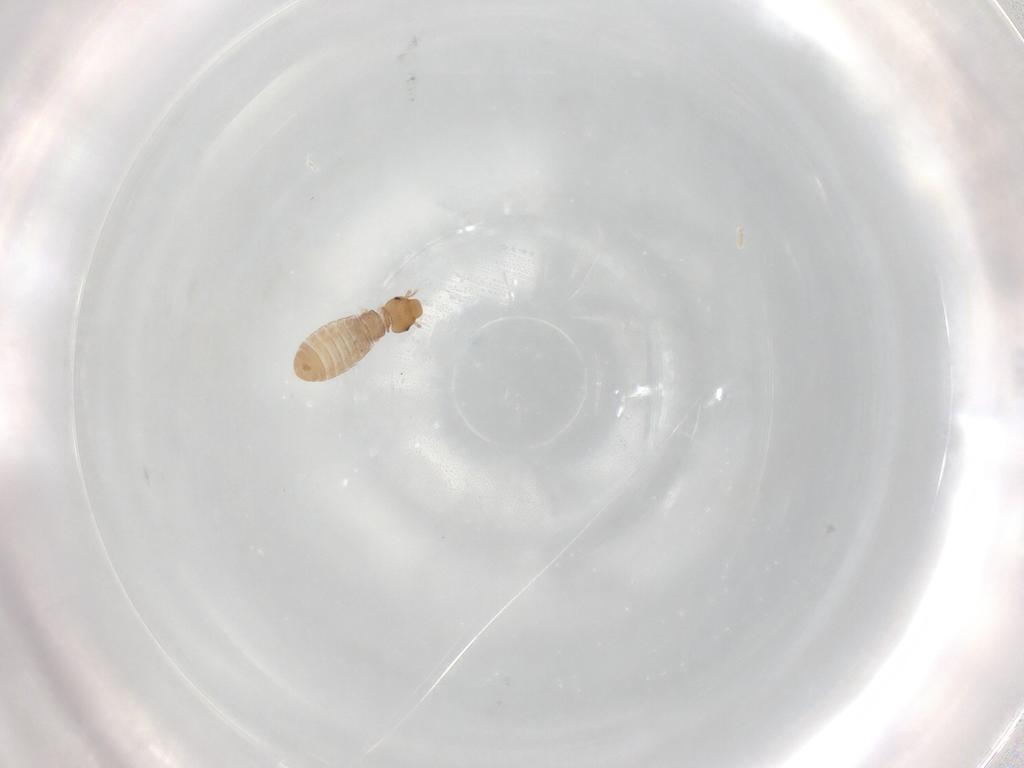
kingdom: Animalia
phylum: Arthropoda
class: Insecta
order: Psocodea
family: Liposcelididae
